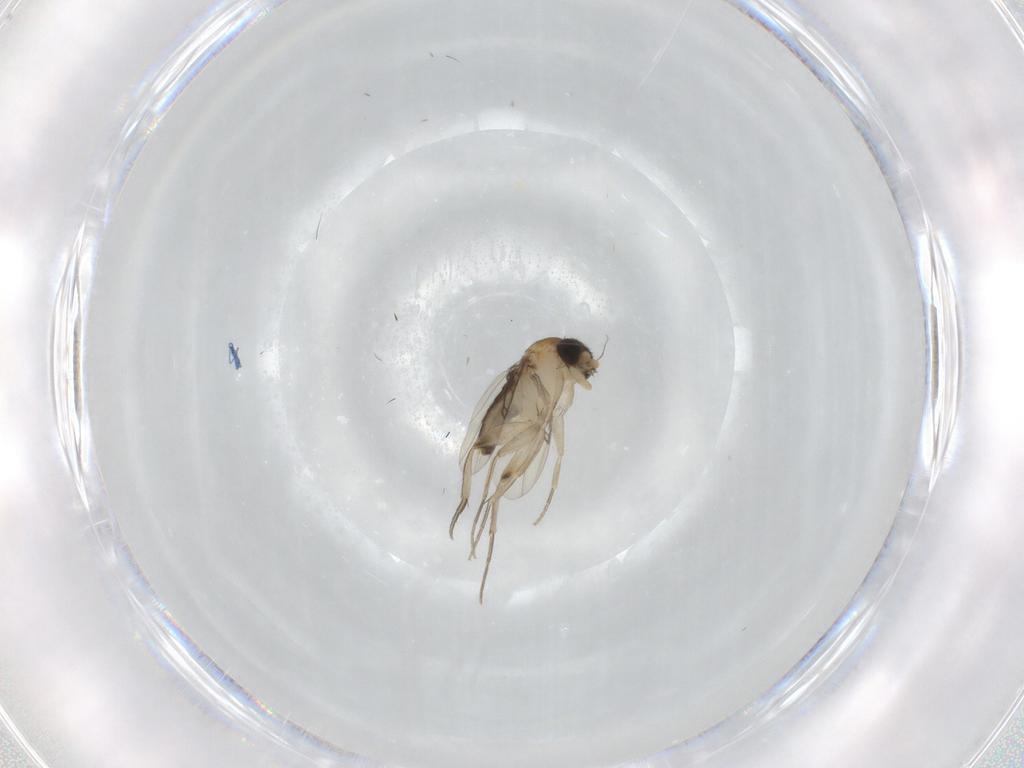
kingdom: Animalia
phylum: Arthropoda
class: Insecta
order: Diptera
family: Phoridae
